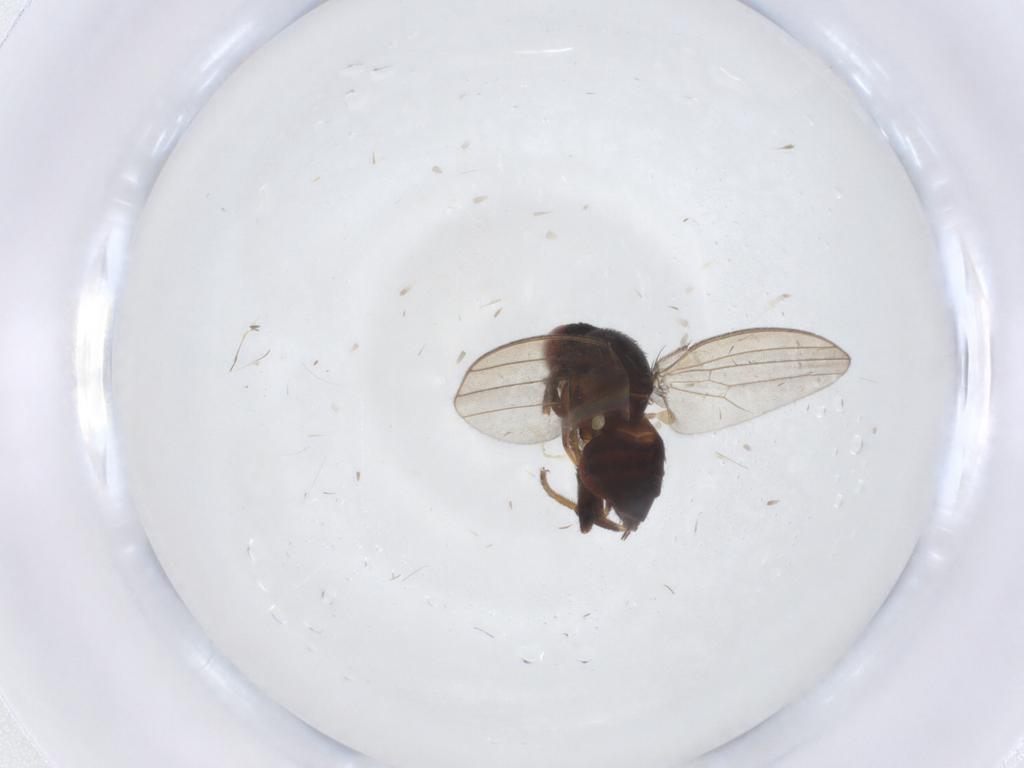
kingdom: Animalia
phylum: Arthropoda
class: Insecta
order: Diptera
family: Milichiidae
